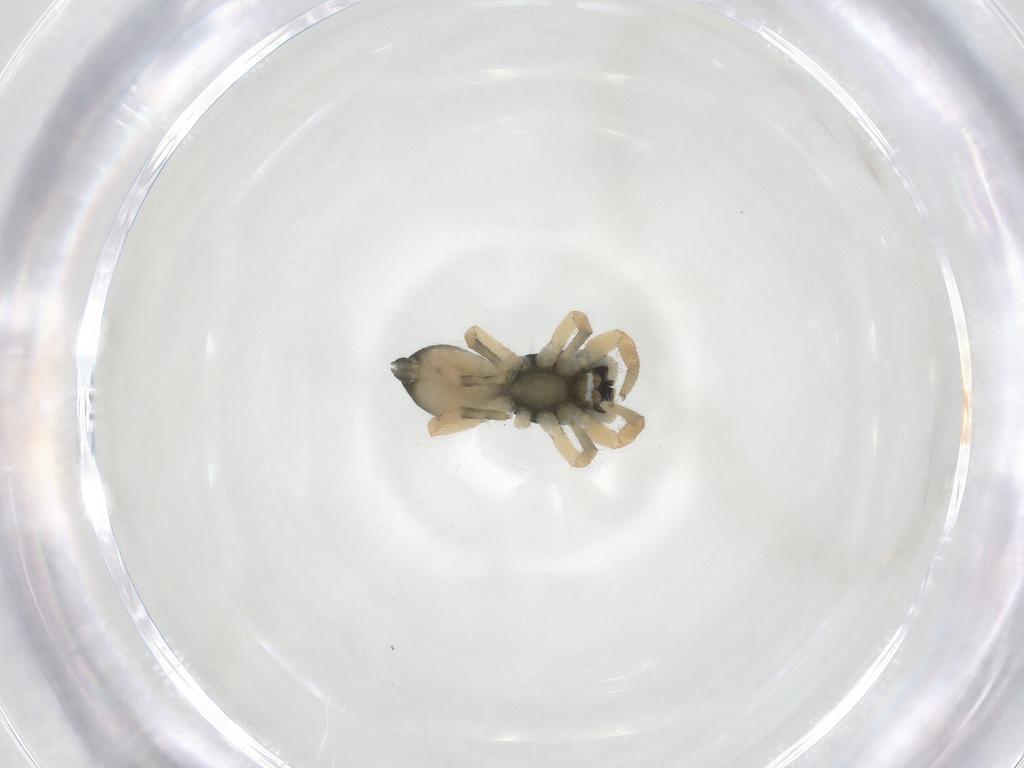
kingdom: Animalia
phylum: Arthropoda
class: Arachnida
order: Araneae
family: Salticidae
